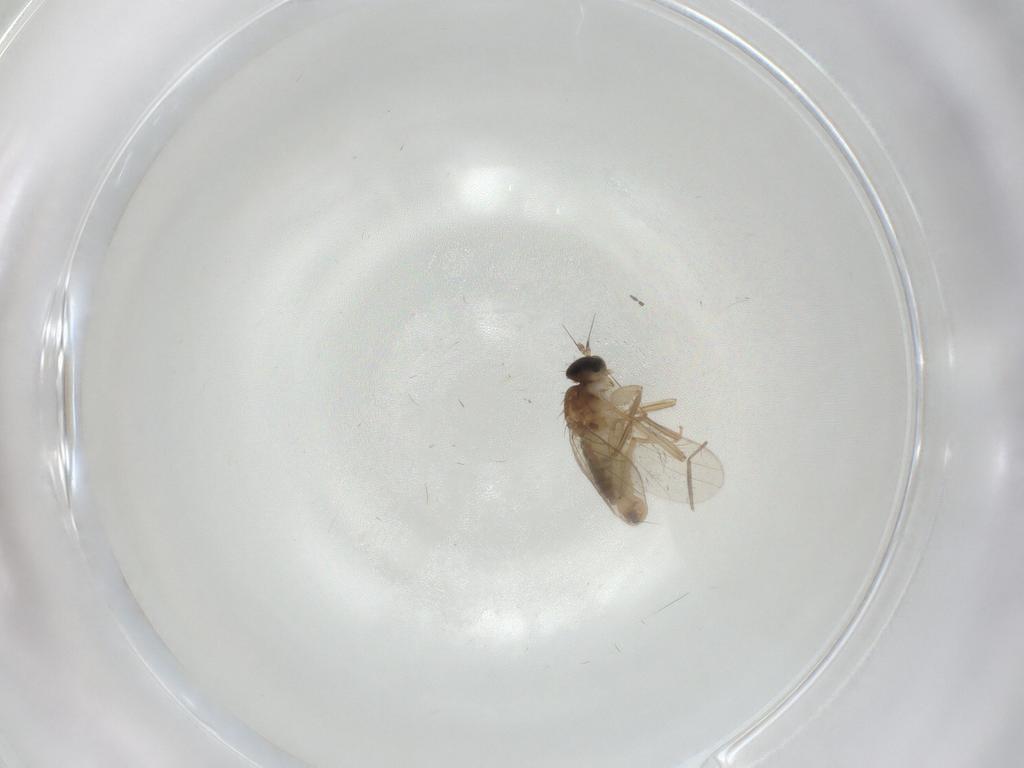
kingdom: Animalia
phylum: Arthropoda
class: Insecta
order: Diptera
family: Hybotidae
